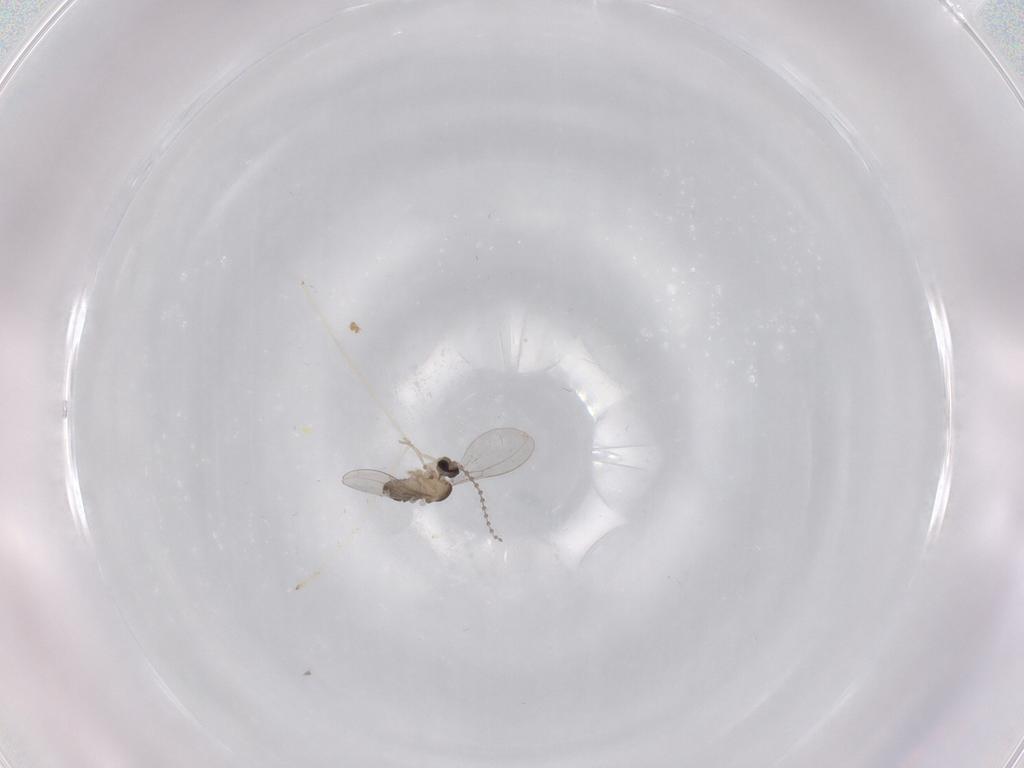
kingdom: Animalia
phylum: Arthropoda
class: Insecta
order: Diptera
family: Cecidomyiidae
